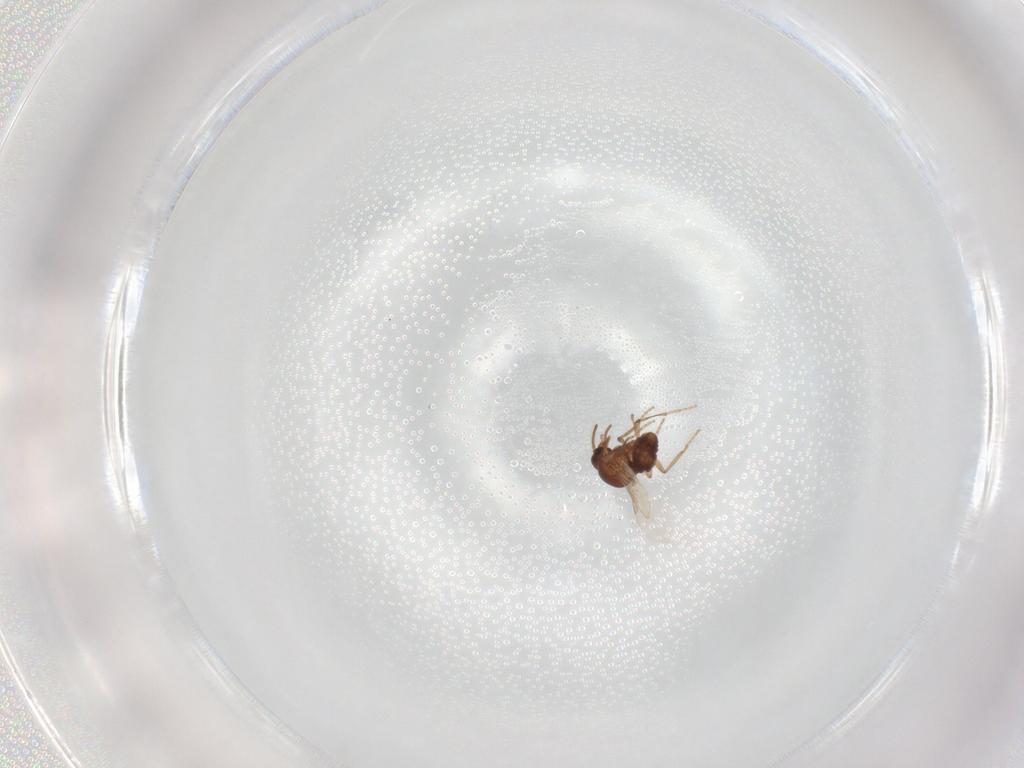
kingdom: Animalia
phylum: Arthropoda
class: Insecta
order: Diptera
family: Ceratopogonidae
